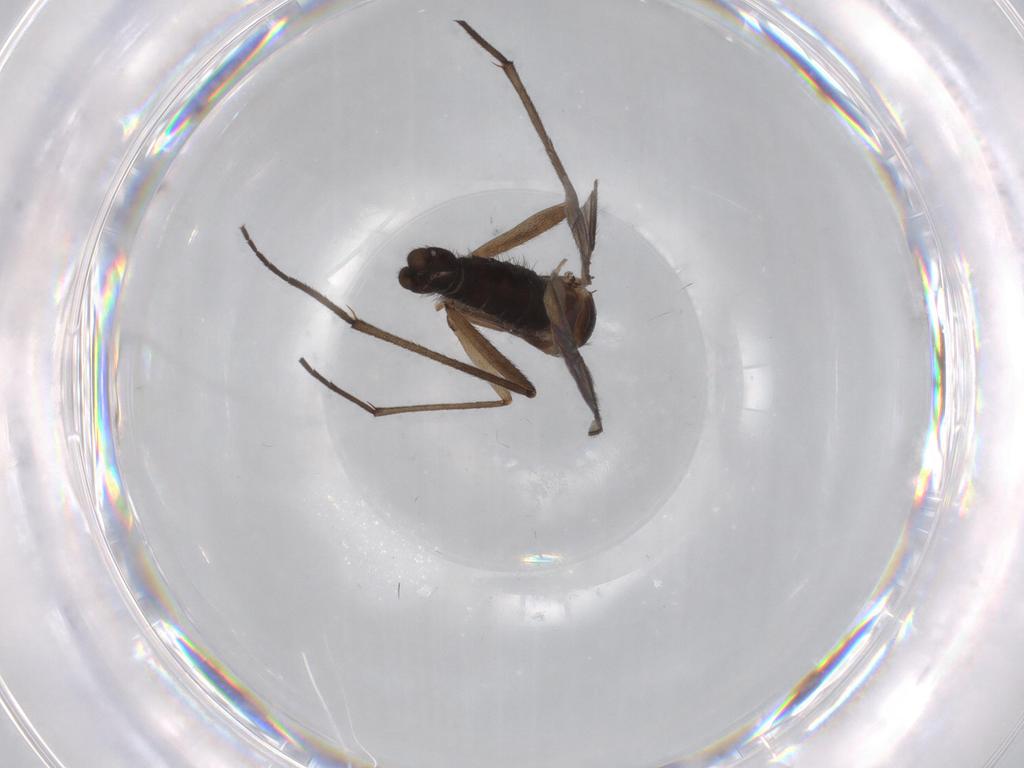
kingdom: Animalia
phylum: Arthropoda
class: Insecta
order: Diptera
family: Sciaridae
